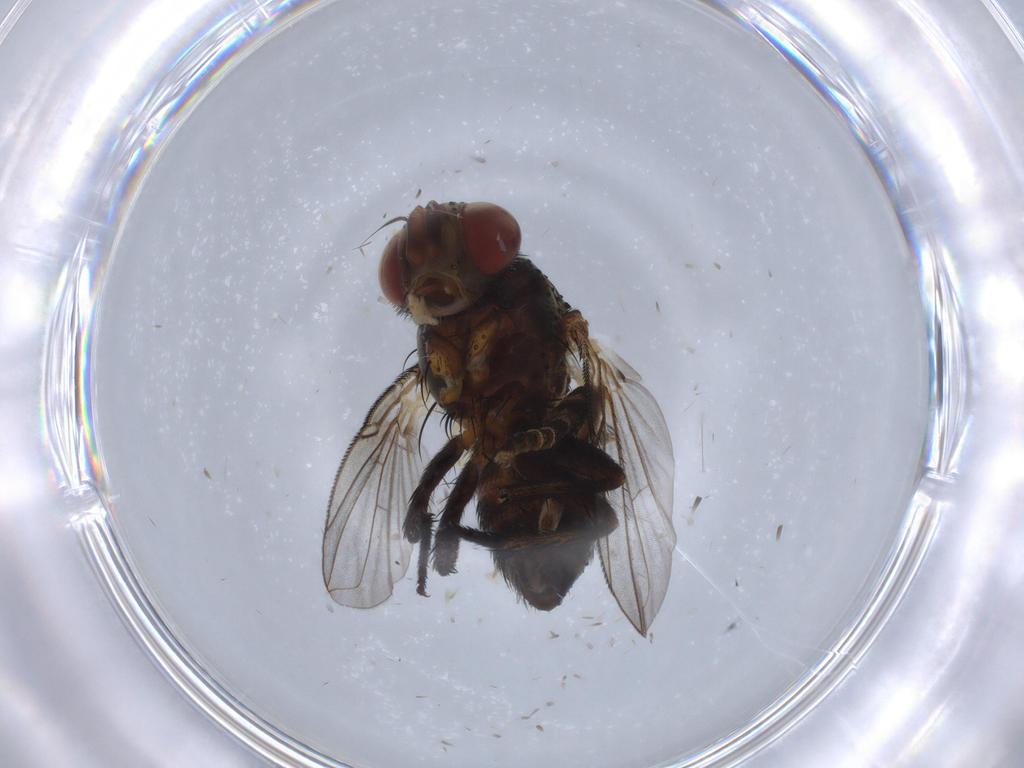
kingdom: Animalia
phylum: Arthropoda
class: Insecta
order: Diptera
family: Tachinidae
